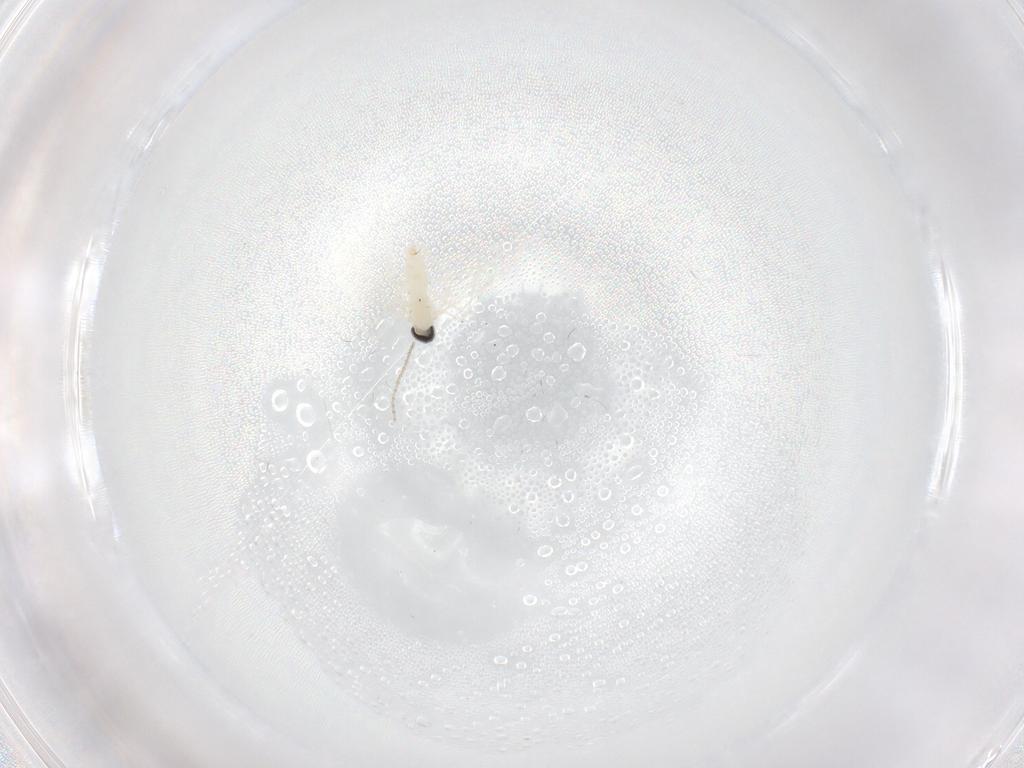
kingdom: Animalia
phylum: Arthropoda
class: Insecta
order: Diptera
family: Cecidomyiidae
